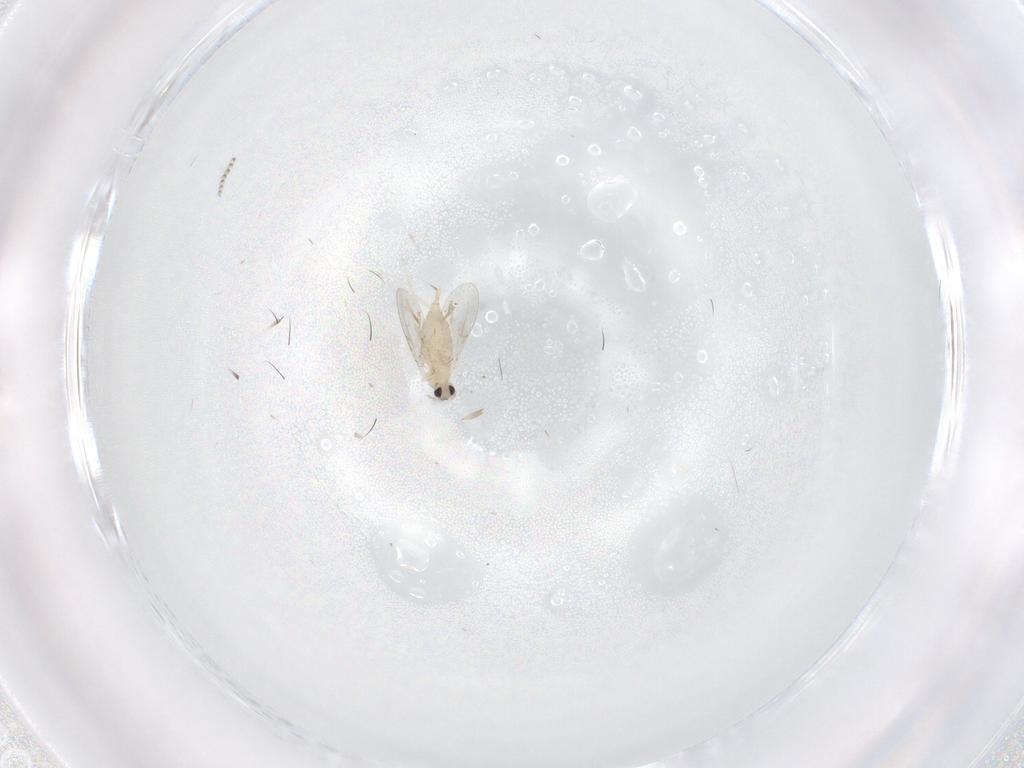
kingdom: Animalia
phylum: Arthropoda
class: Insecta
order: Diptera
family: Cecidomyiidae
